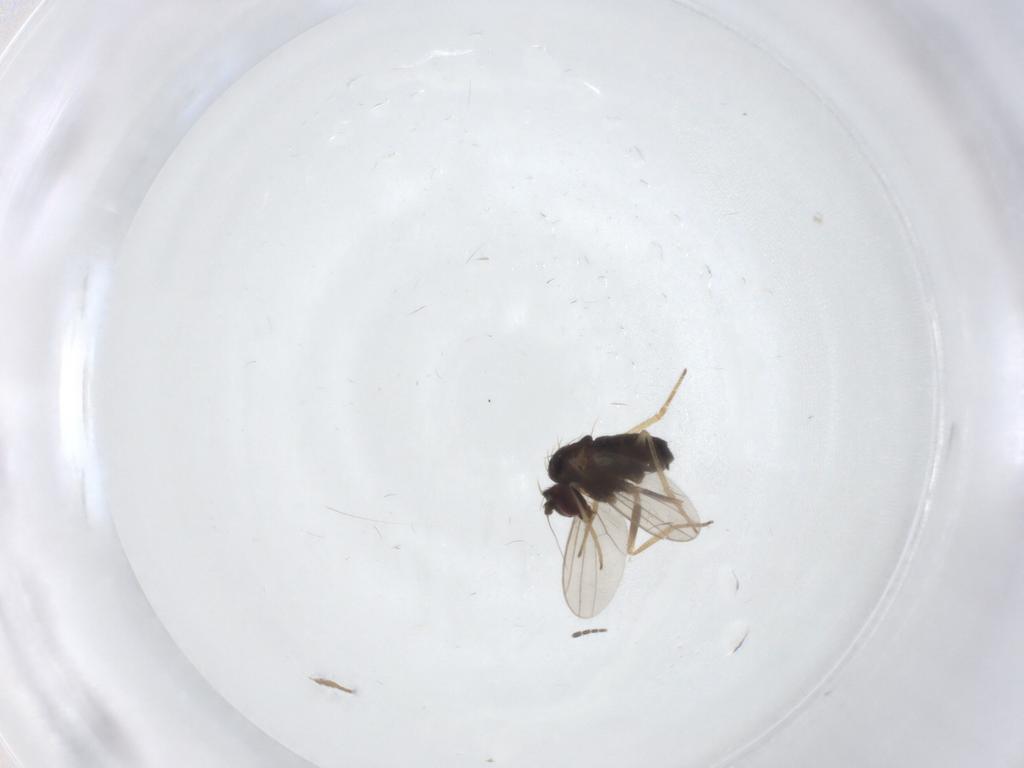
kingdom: Animalia
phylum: Arthropoda
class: Insecta
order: Diptera
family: Dolichopodidae
